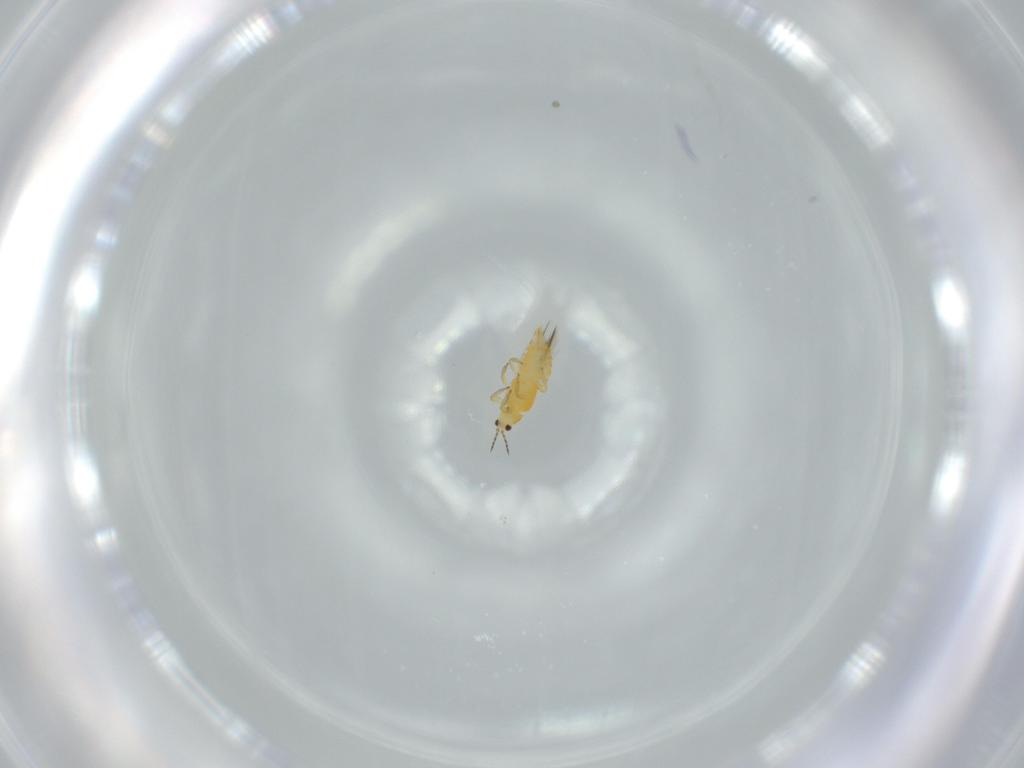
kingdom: Animalia
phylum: Arthropoda
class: Insecta
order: Thysanoptera
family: Thripidae
